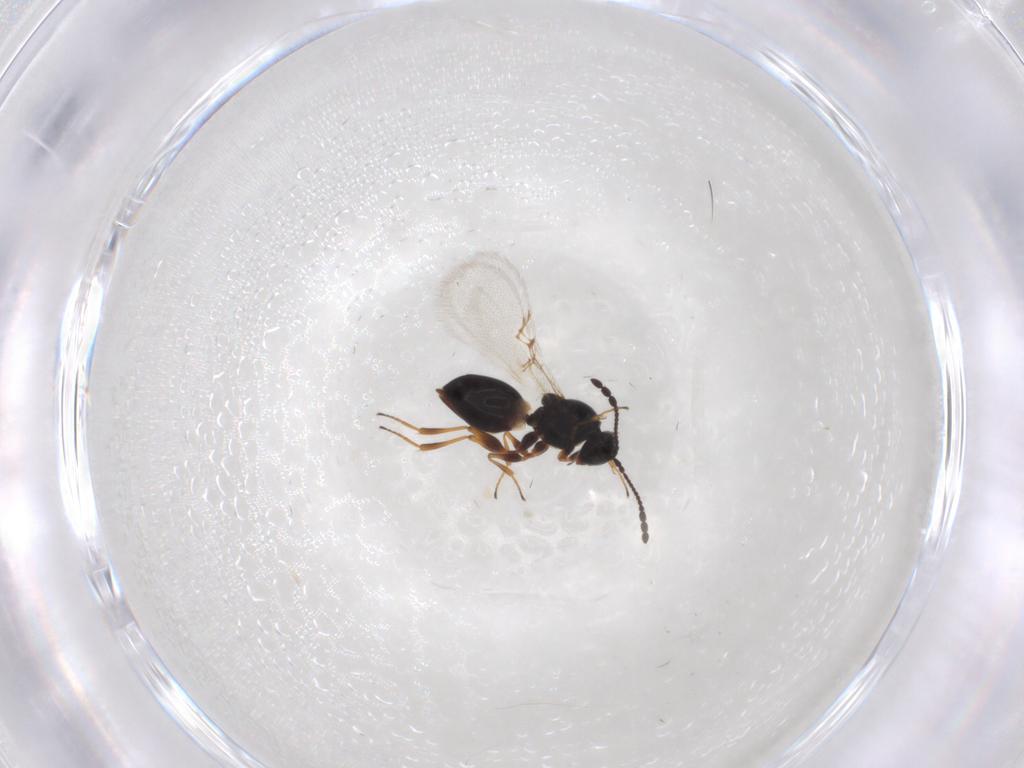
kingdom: Animalia
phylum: Arthropoda
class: Insecta
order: Hymenoptera
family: Figitidae
